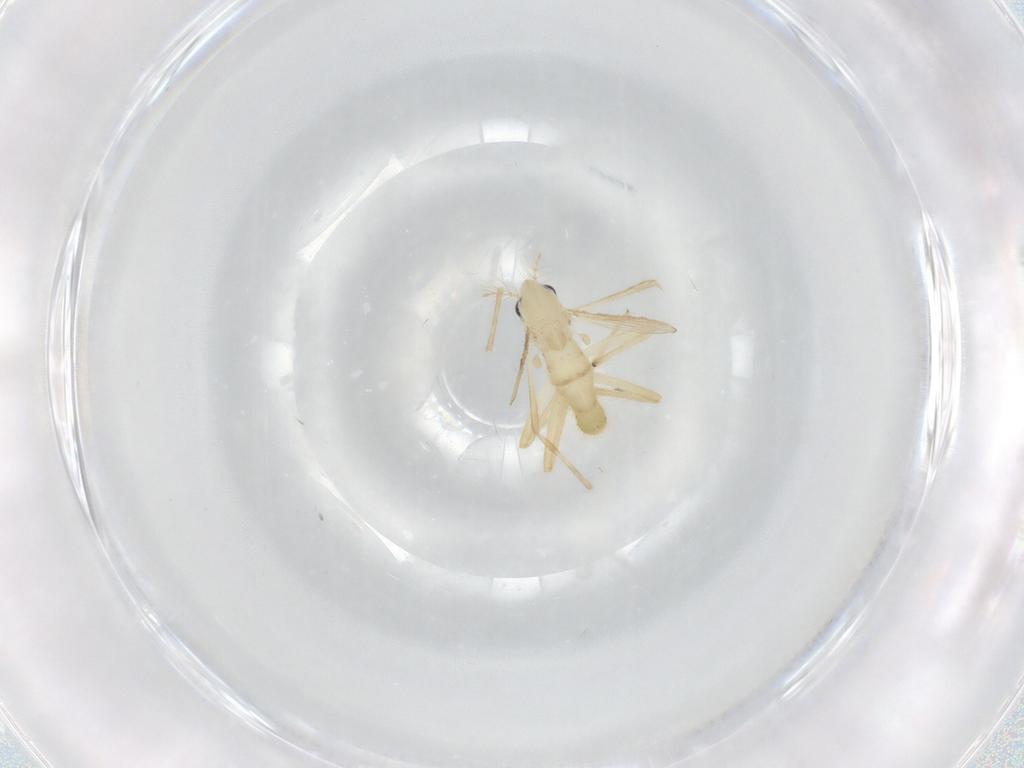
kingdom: Animalia
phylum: Arthropoda
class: Insecta
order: Diptera
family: Chironomidae
